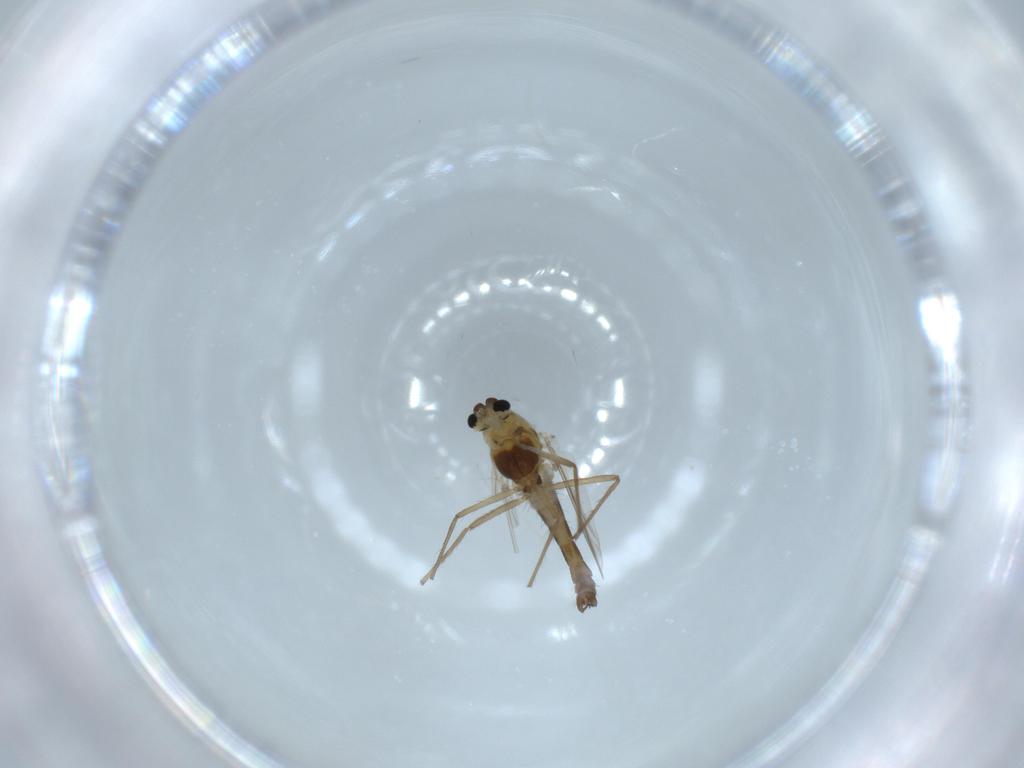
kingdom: Animalia
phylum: Arthropoda
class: Insecta
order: Diptera
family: Chironomidae
